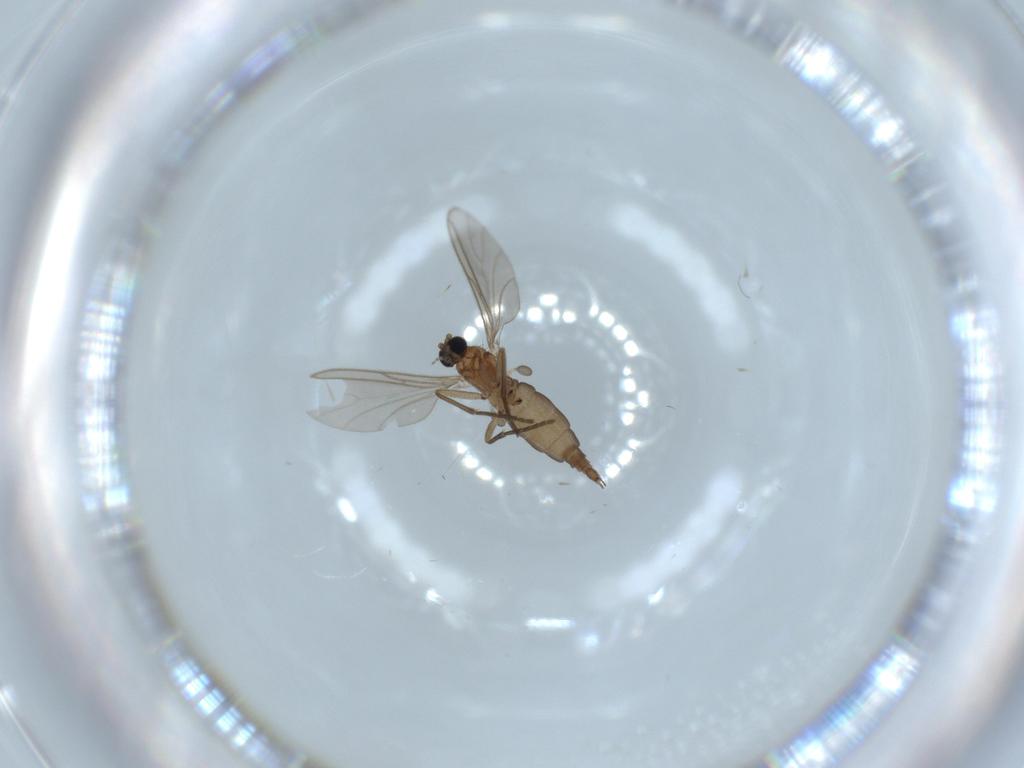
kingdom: Animalia
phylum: Arthropoda
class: Insecta
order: Diptera
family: Sciaridae
